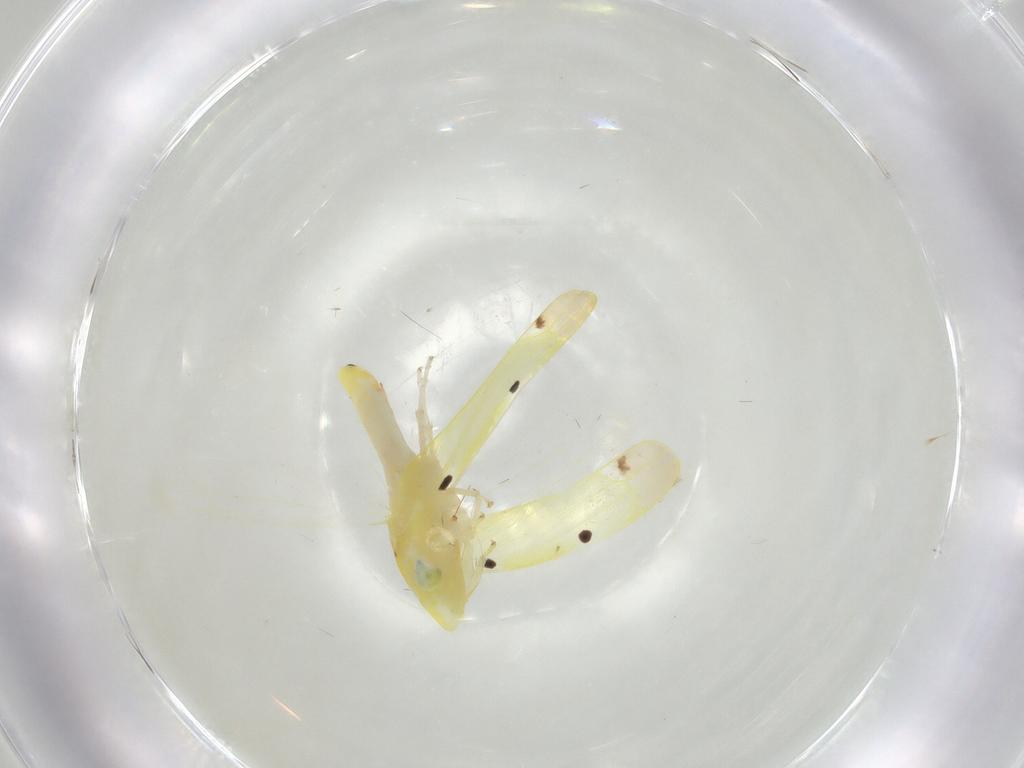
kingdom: Animalia
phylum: Arthropoda
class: Insecta
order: Hemiptera
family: Cicadellidae
